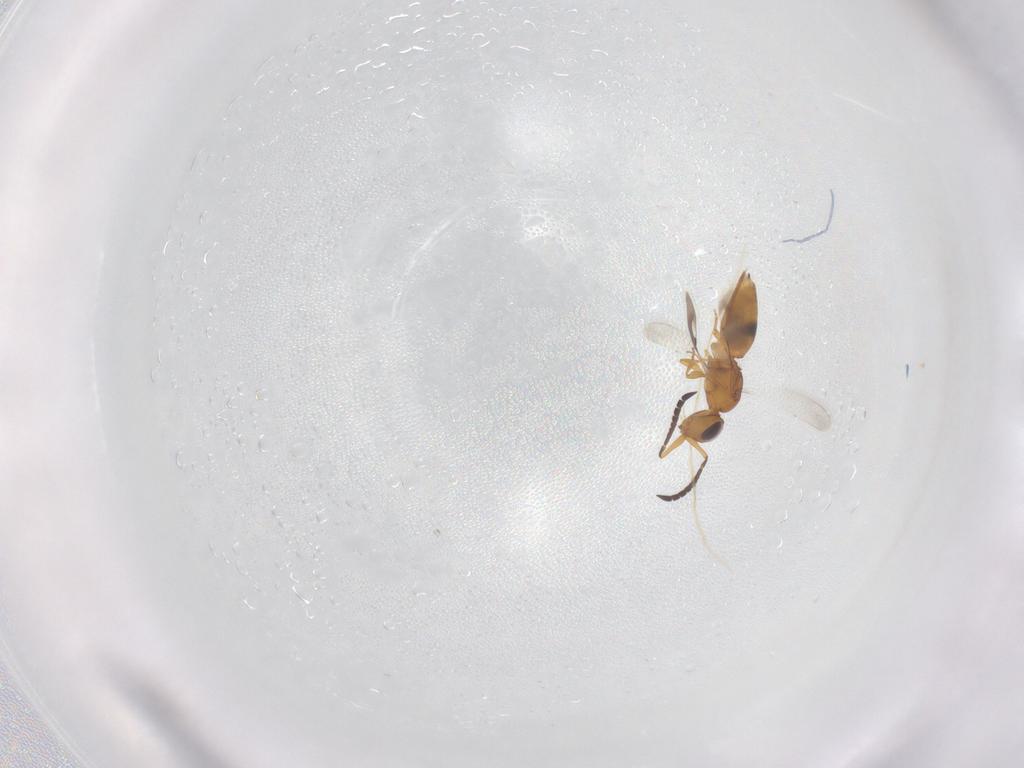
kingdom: Animalia
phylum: Arthropoda
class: Insecta
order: Hymenoptera
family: Ceraphronidae
